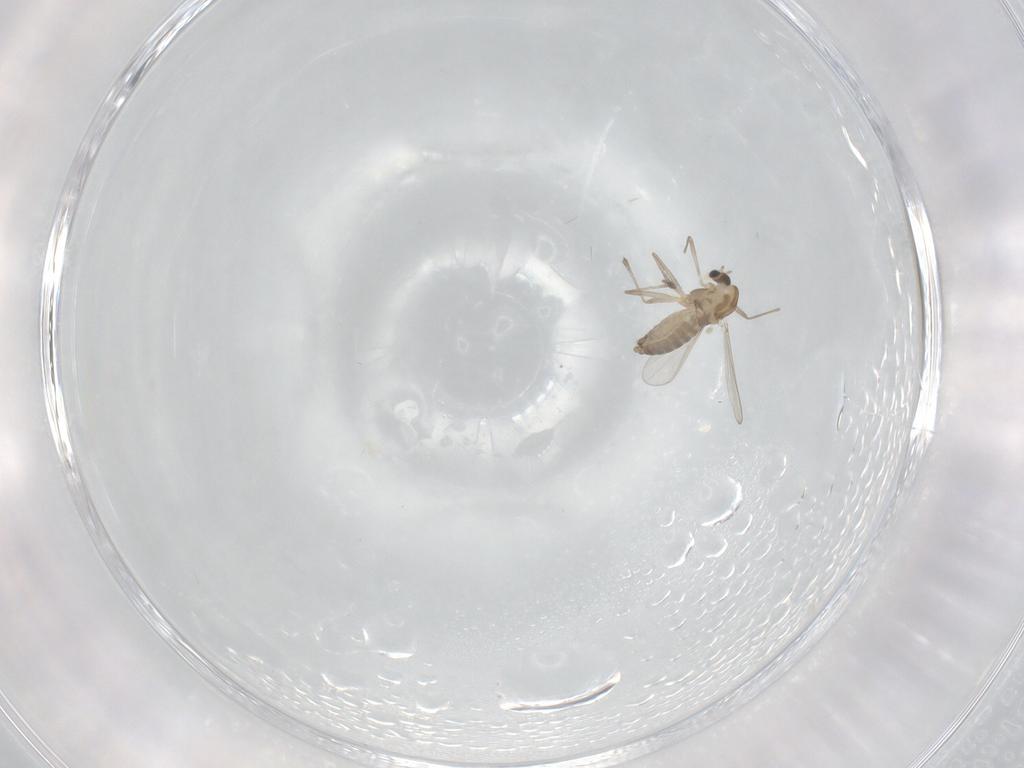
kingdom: Animalia
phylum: Arthropoda
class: Insecta
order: Diptera
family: Chironomidae
